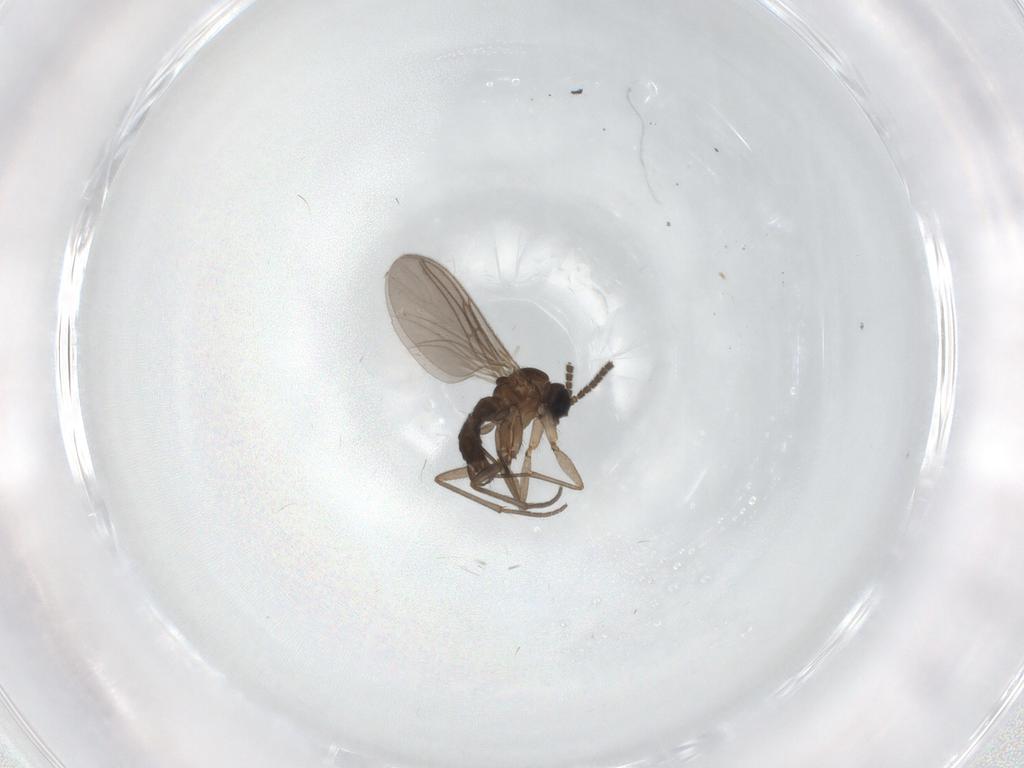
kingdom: Animalia
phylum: Arthropoda
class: Insecta
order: Diptera
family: Sciaridae
